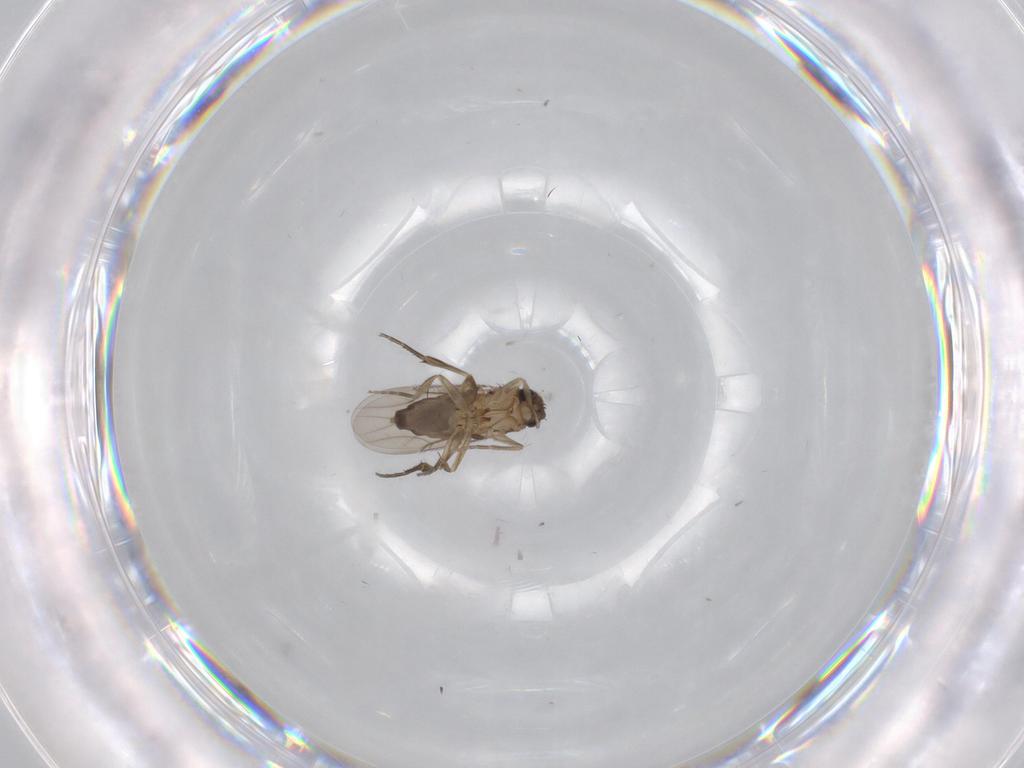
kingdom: Animalia
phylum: Arthropoda
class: Insecta
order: Diptera
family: Phoridae
